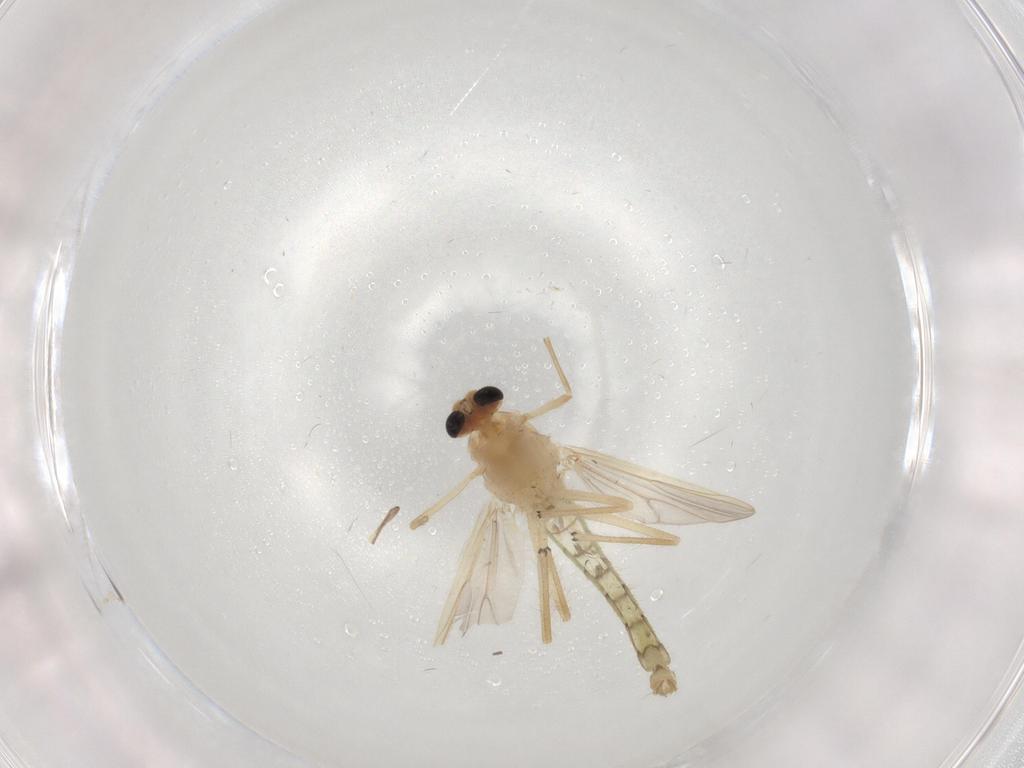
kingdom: Animalia
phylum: Arthropoda
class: Insecta
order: Diptera
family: Chironomidae
